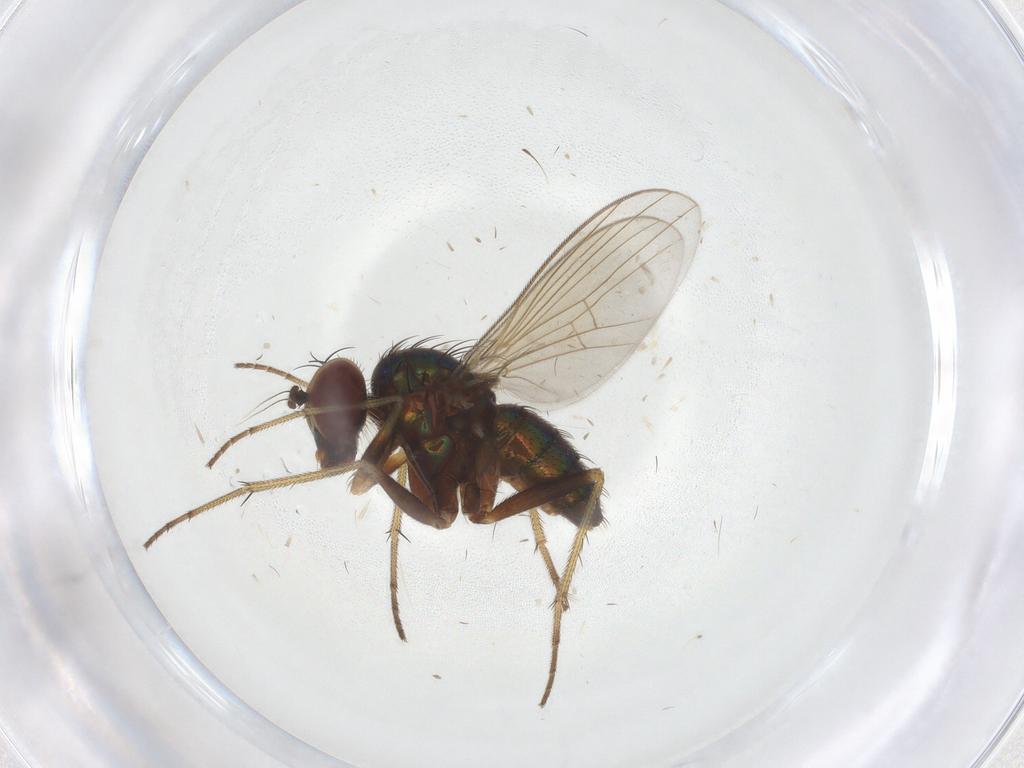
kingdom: Animalia
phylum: Arthropoda
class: Insecta
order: Diptera
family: Dolichopodidae
